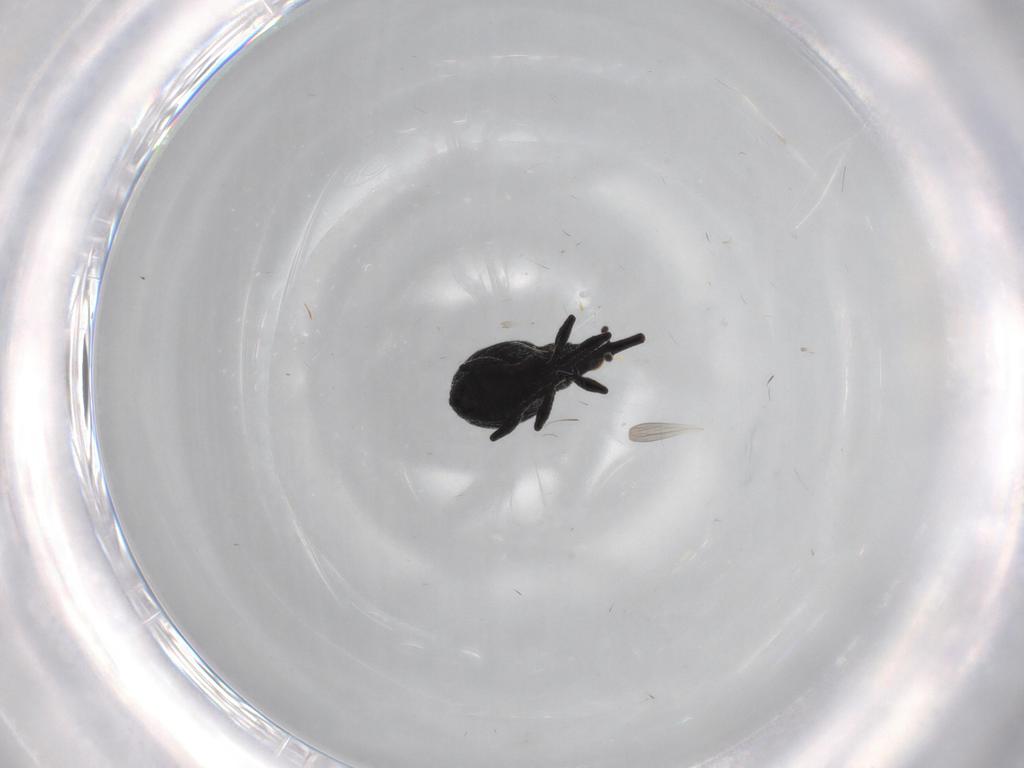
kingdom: Animalia
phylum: Arthropoda
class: Insecta
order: Coleoptera
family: Brentidae
